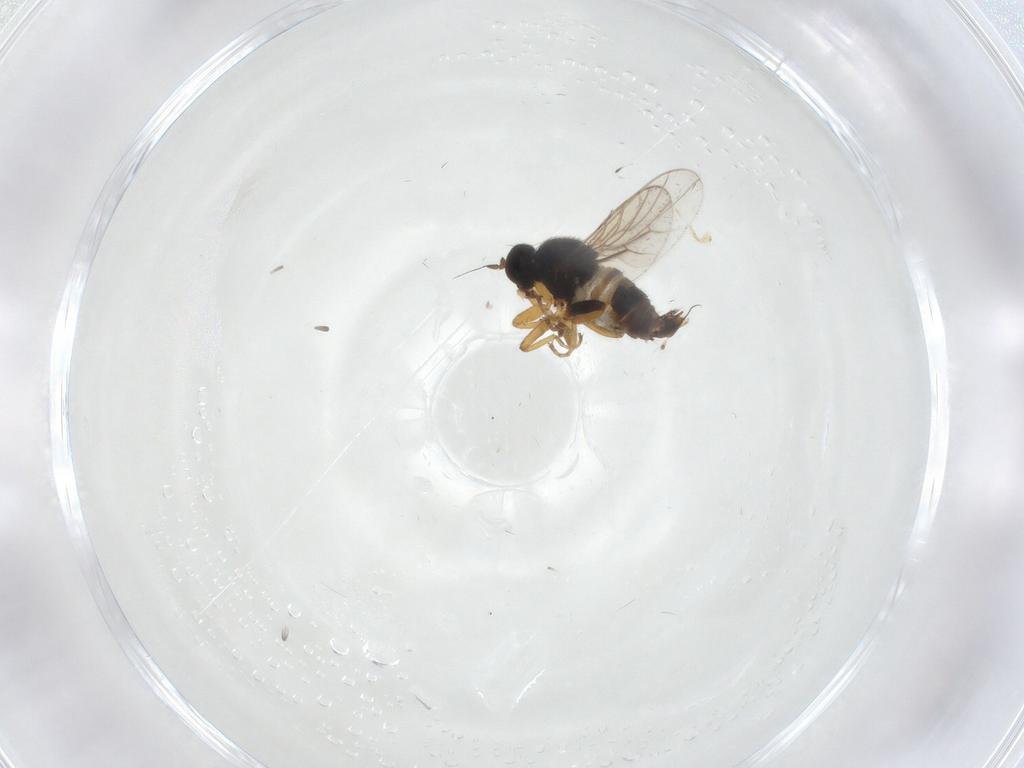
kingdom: Animalia
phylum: Arthropoda
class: Insecta
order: Diptera
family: Hybotidae
